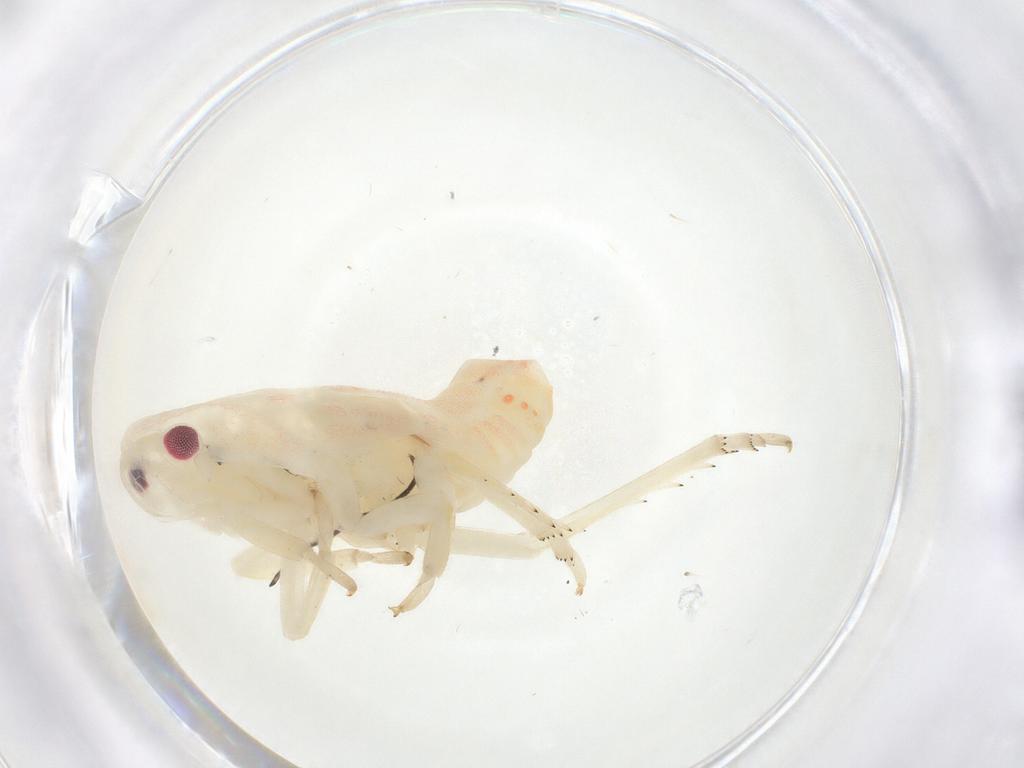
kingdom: Animalia
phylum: Arthropoda
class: Insecta
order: Hemiptera
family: Flatidae
